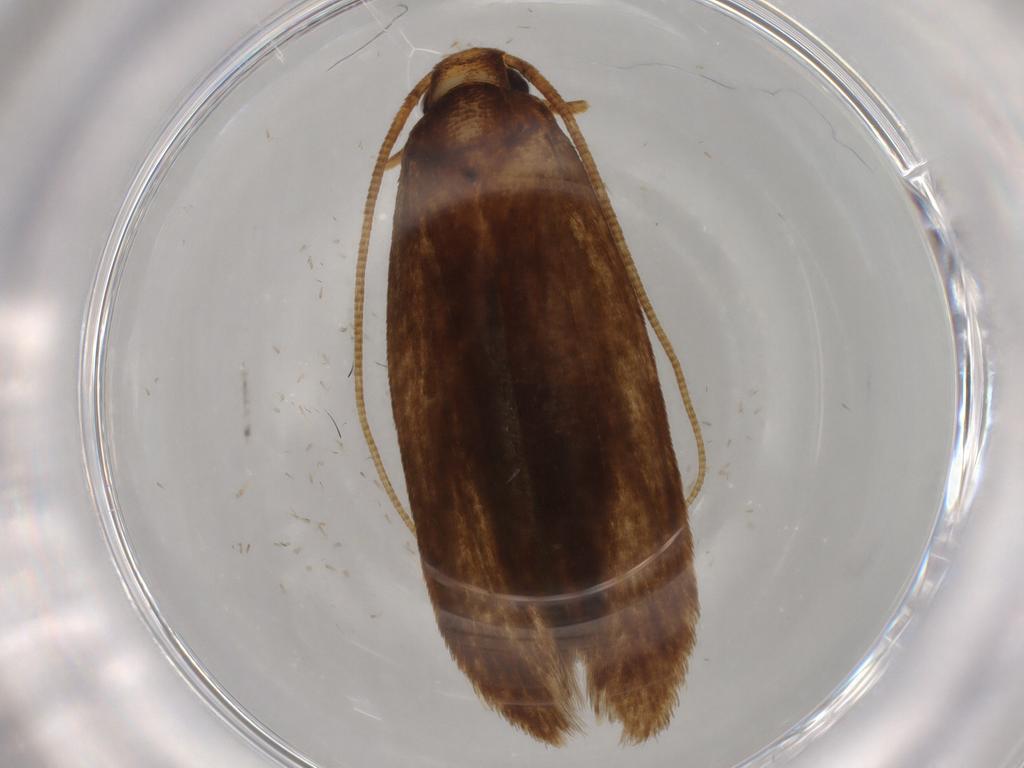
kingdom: Animalia
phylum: Arthropoda
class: Insecta
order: Lepidoptera
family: Tineidae
